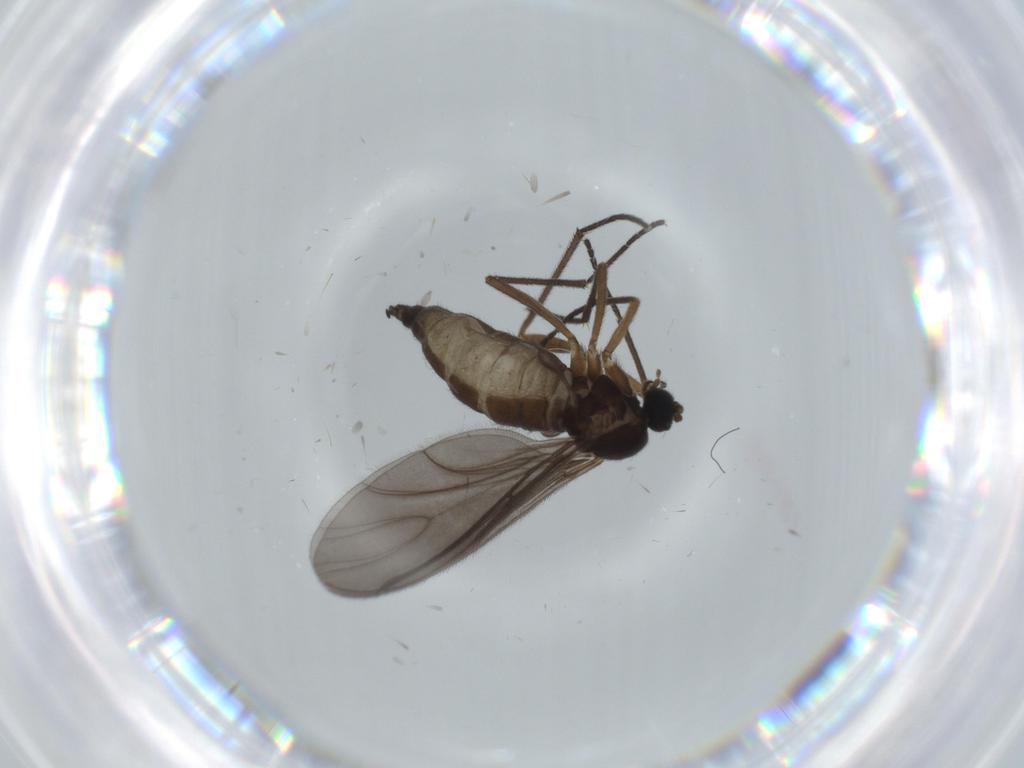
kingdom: Animalia
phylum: Arthropoda
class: Insecta
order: Diptera
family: Sciaridae
